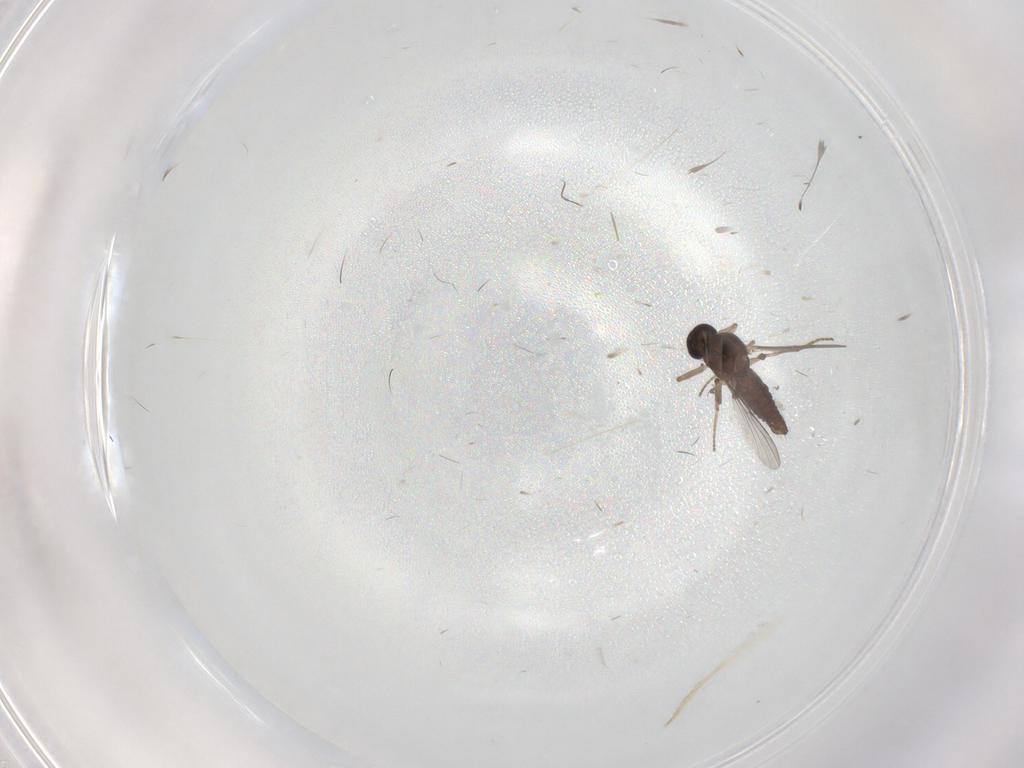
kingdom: Animalia
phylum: Arthropoda
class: Insecta
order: Diptera
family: Ceratopogonidae
